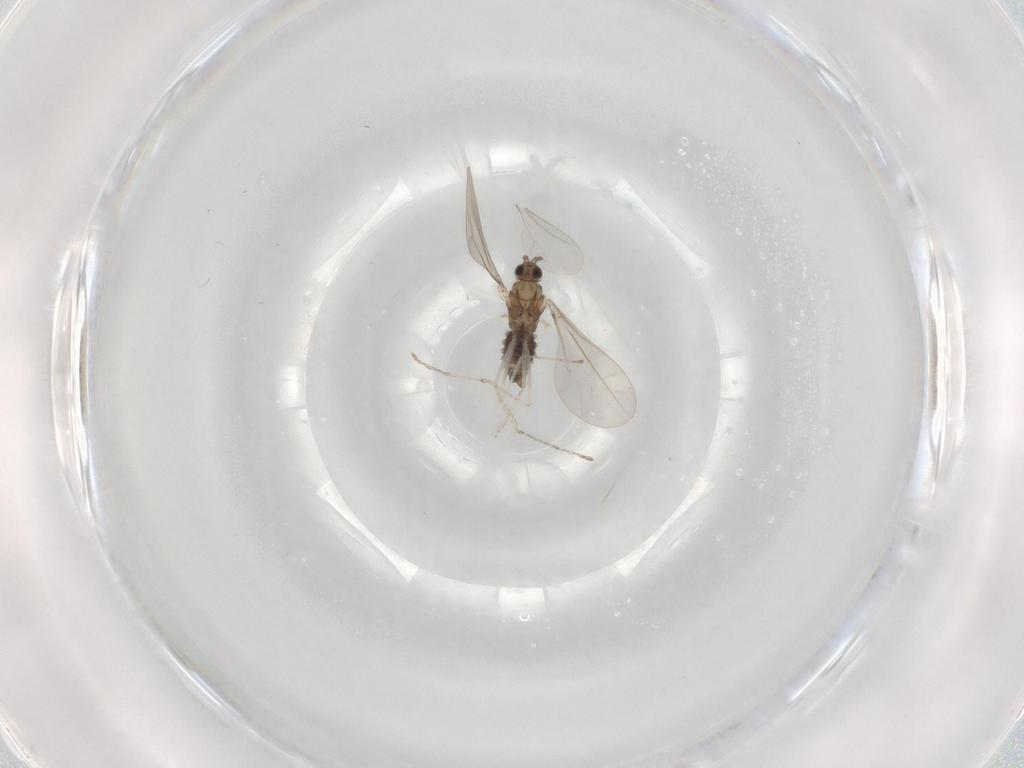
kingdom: Animalia
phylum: Arthropoda
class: Insecta
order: Diptera
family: Cecidomyiidae
